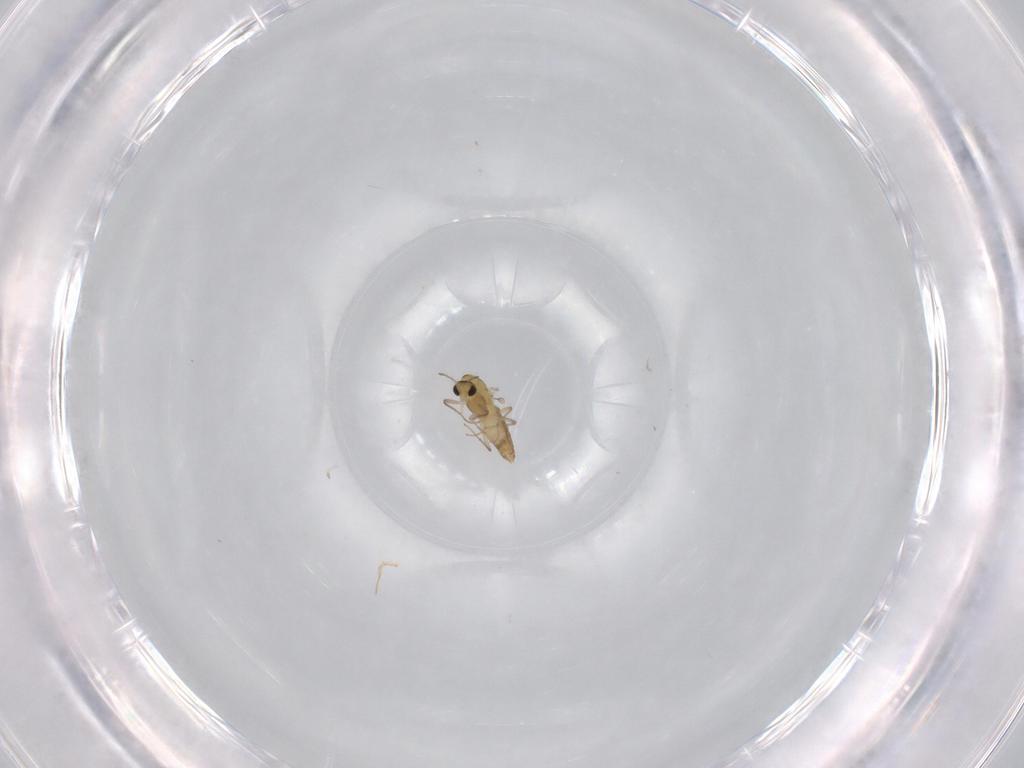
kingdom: Animalia
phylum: Arthropoda
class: Insecta
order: Diptera
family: Chironomidae
